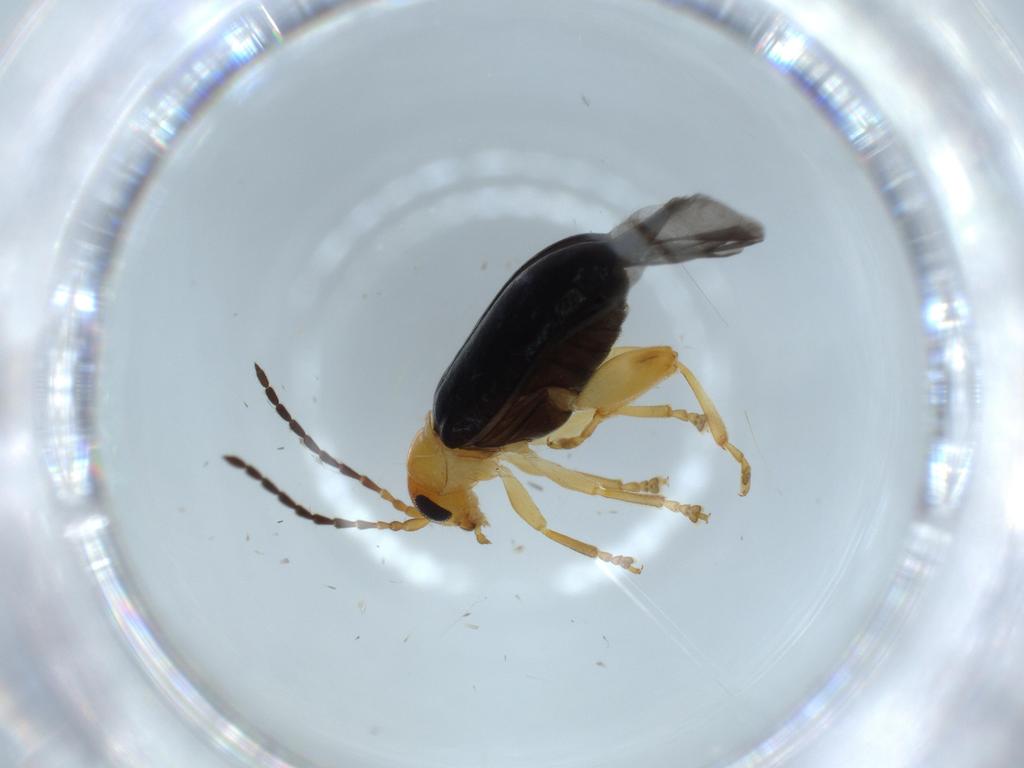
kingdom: Animalia
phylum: Arthropoda
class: Insecta
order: Coleoptera
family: Chrysomelidae
